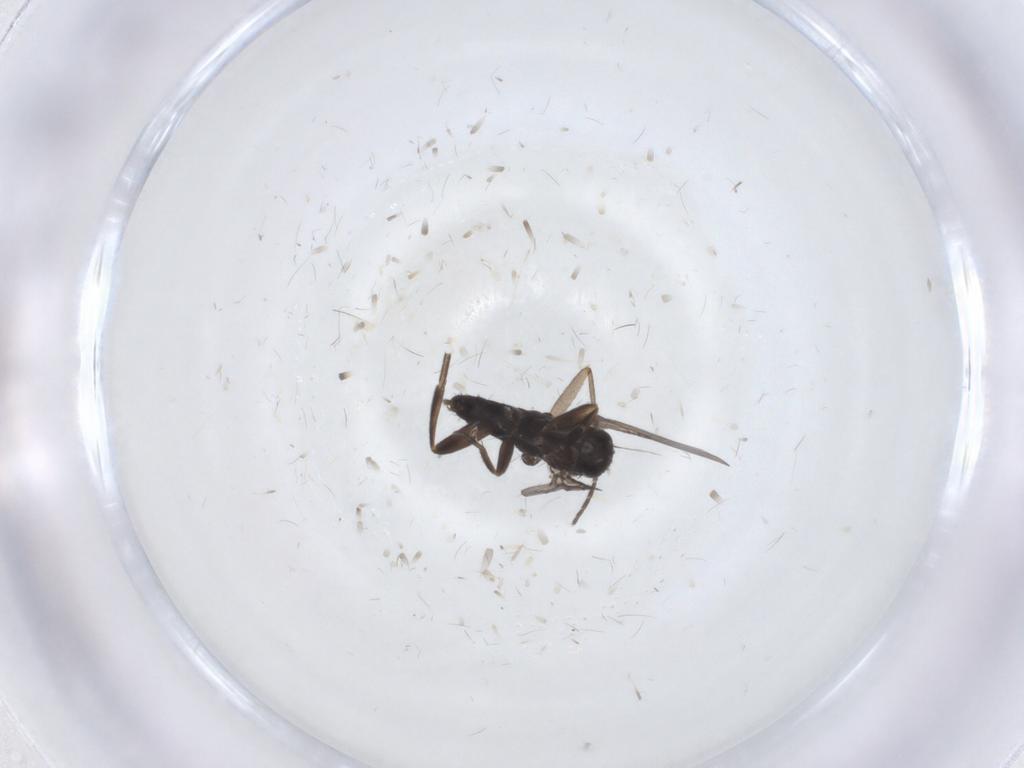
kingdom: Animalia
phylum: Arthropoda
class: Insecta
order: Diptera
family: Phoridae
